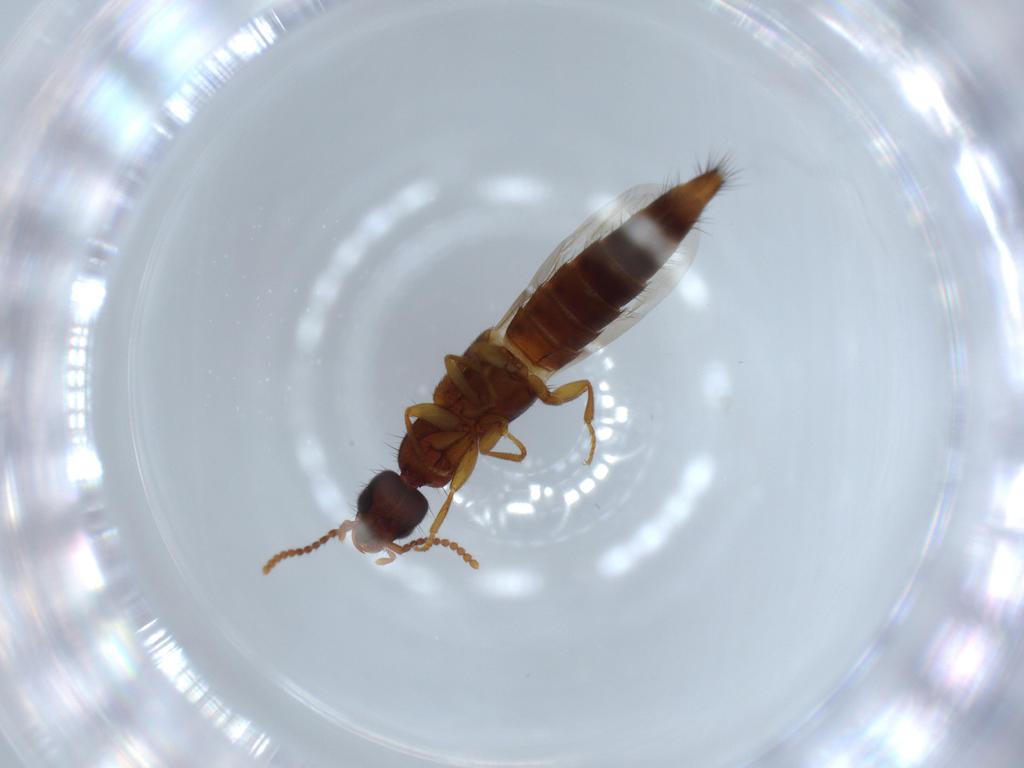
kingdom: Animalia
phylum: Arthropoda
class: Insecta
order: Coleoptera
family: Staphylinidae
